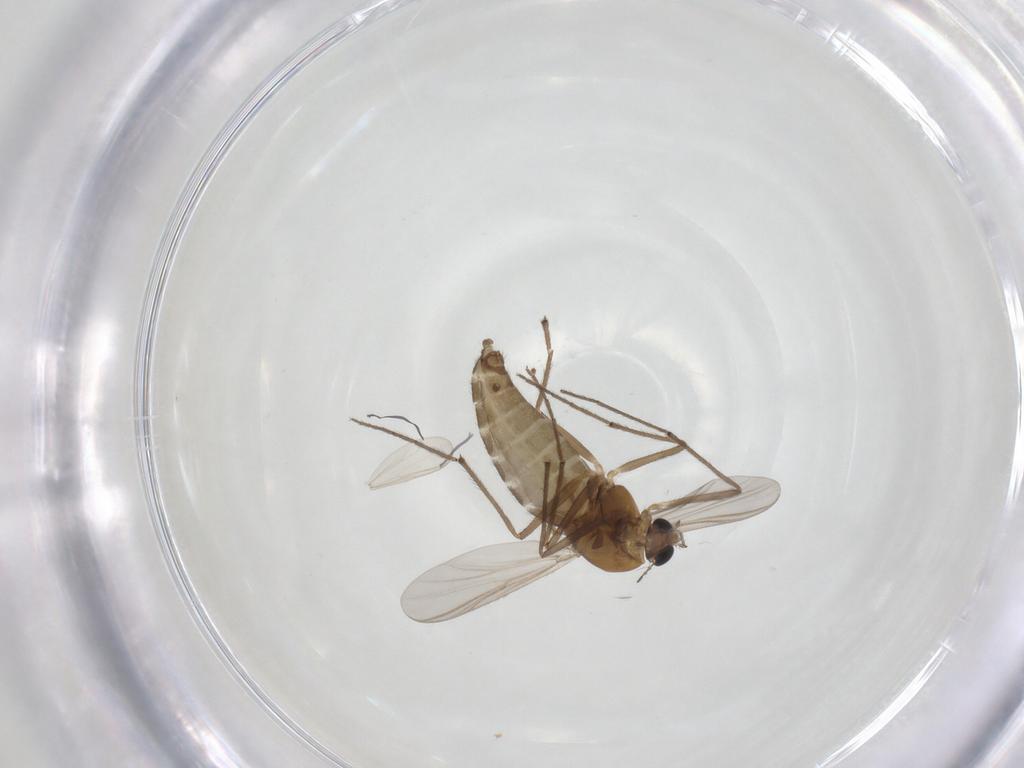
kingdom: Animalia
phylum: Arthropoda
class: Insecta
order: Diptera
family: Chironomidae
